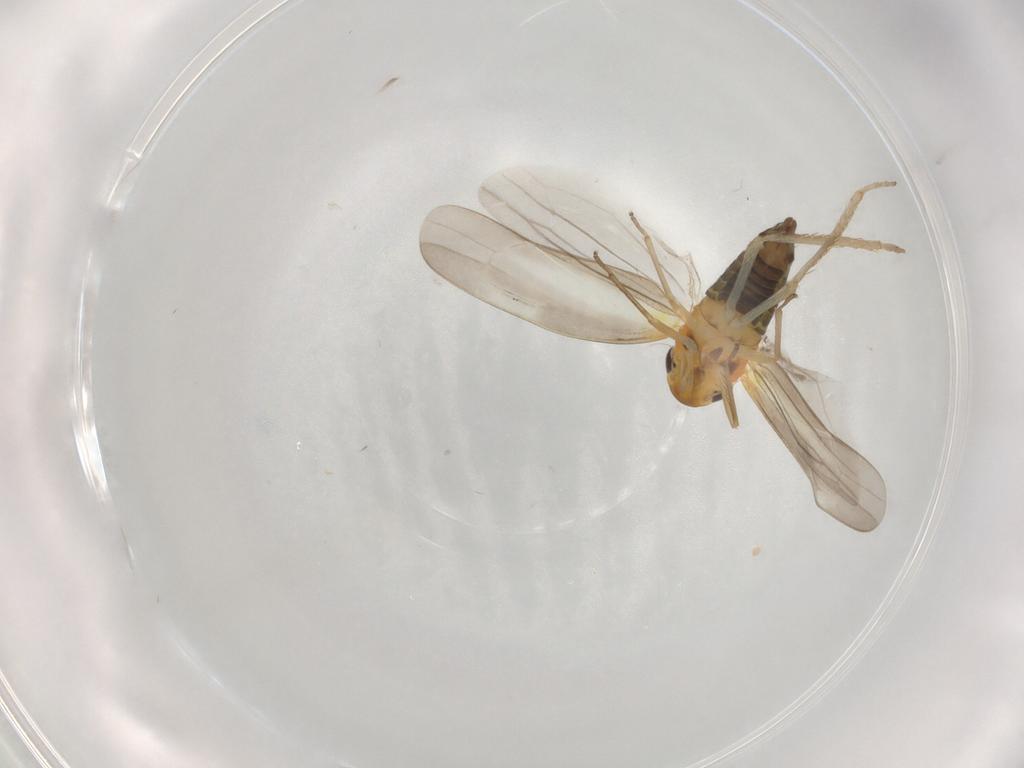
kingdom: Animalia
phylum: Arthropoda
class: Insecta
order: Hemiptera
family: Cicadellidae
